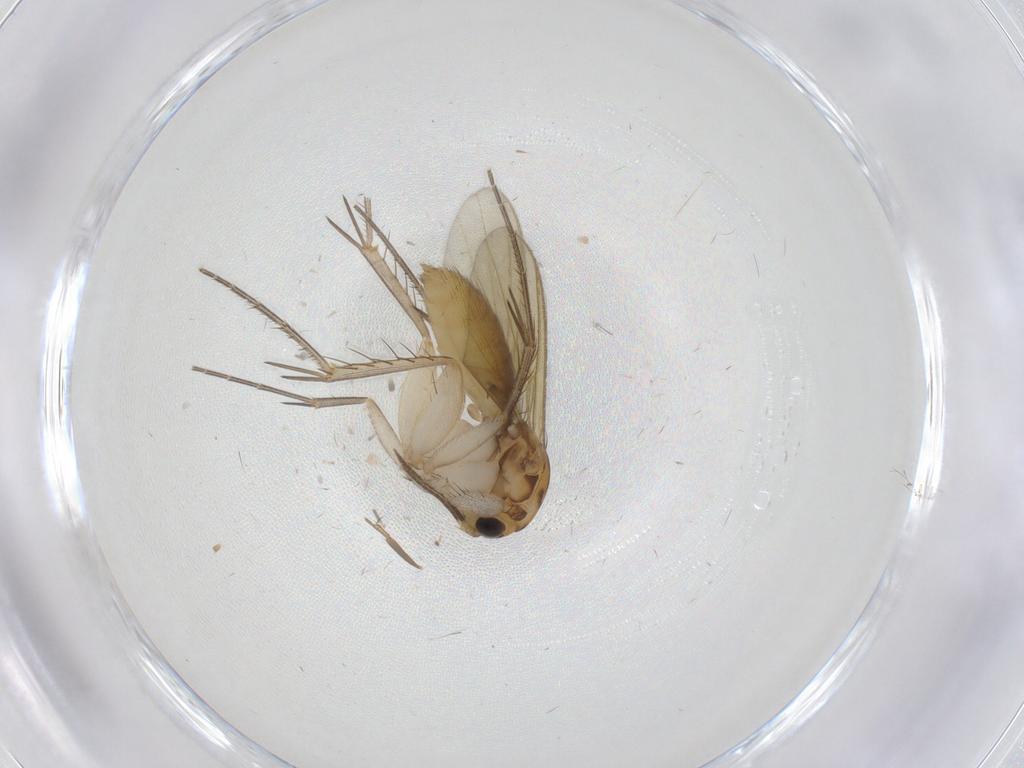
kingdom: Animalia
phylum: Arthropoda
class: Insecta
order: Diptera
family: Mycetophilidae
